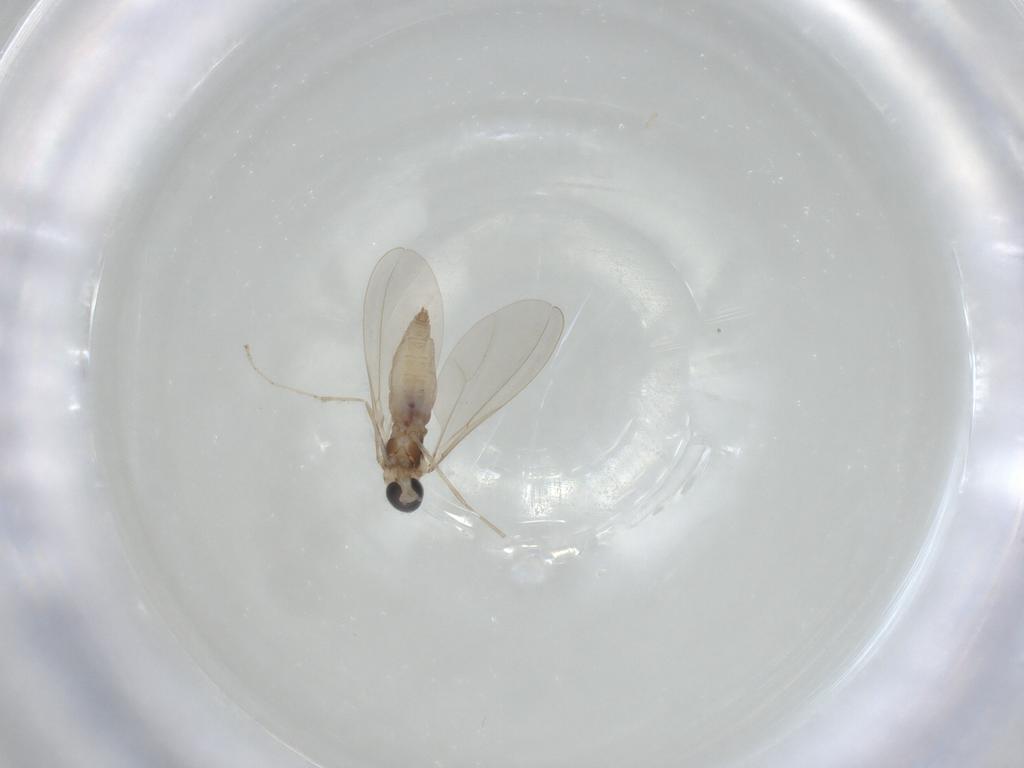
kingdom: Animalia
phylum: Arthropoda
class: Insecta
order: Diptera
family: Cecidomyiidae
